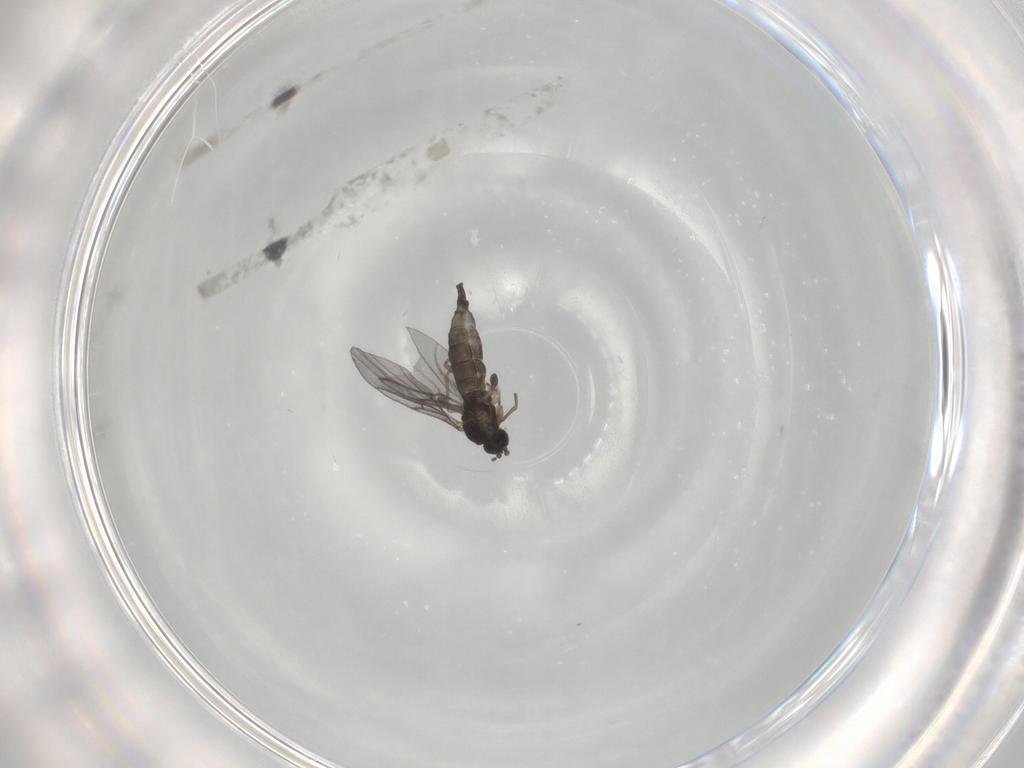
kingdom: Animalia
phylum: Arthropoda
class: Insecta
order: Diptera
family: Sciaridae
